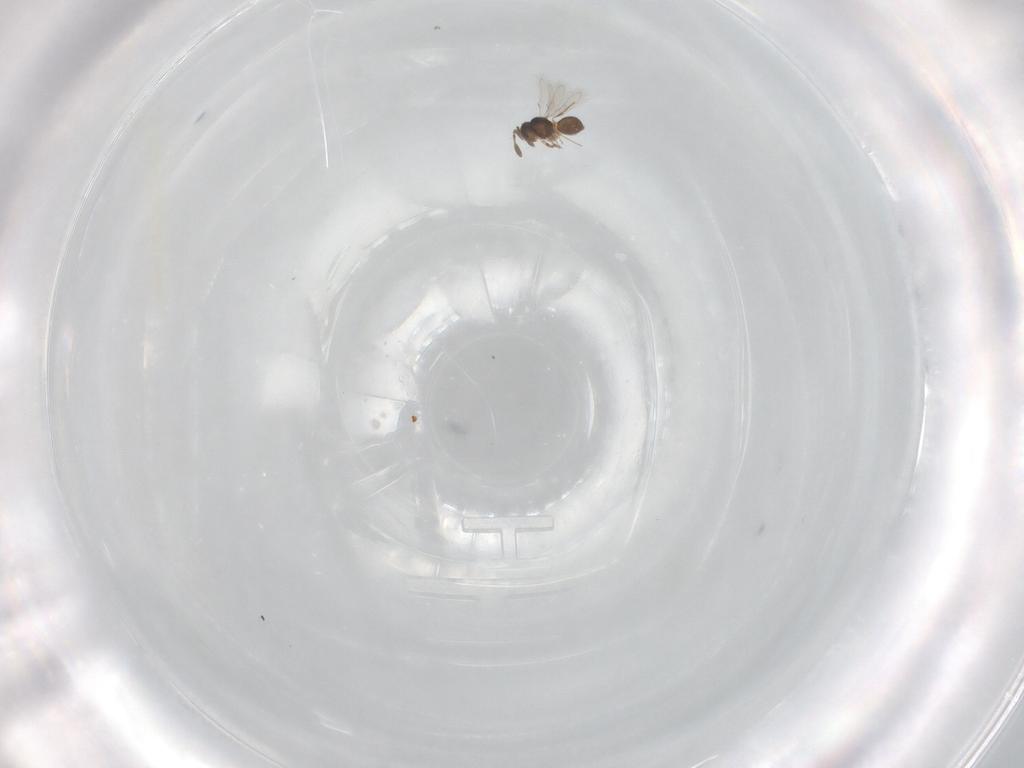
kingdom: Animalia
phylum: Arthropoda
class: Insecta
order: Hymenoptera
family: Scelionidae
